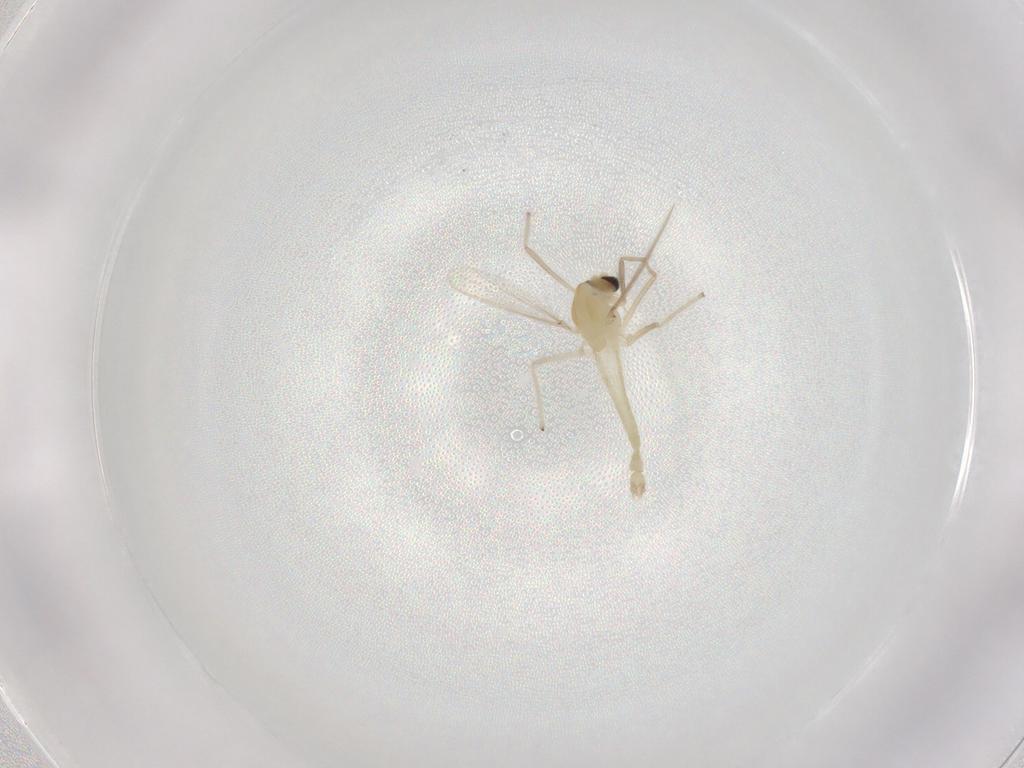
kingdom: Animalia
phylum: Arthropoda
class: Insecta
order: Diptera
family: Chironomidae
